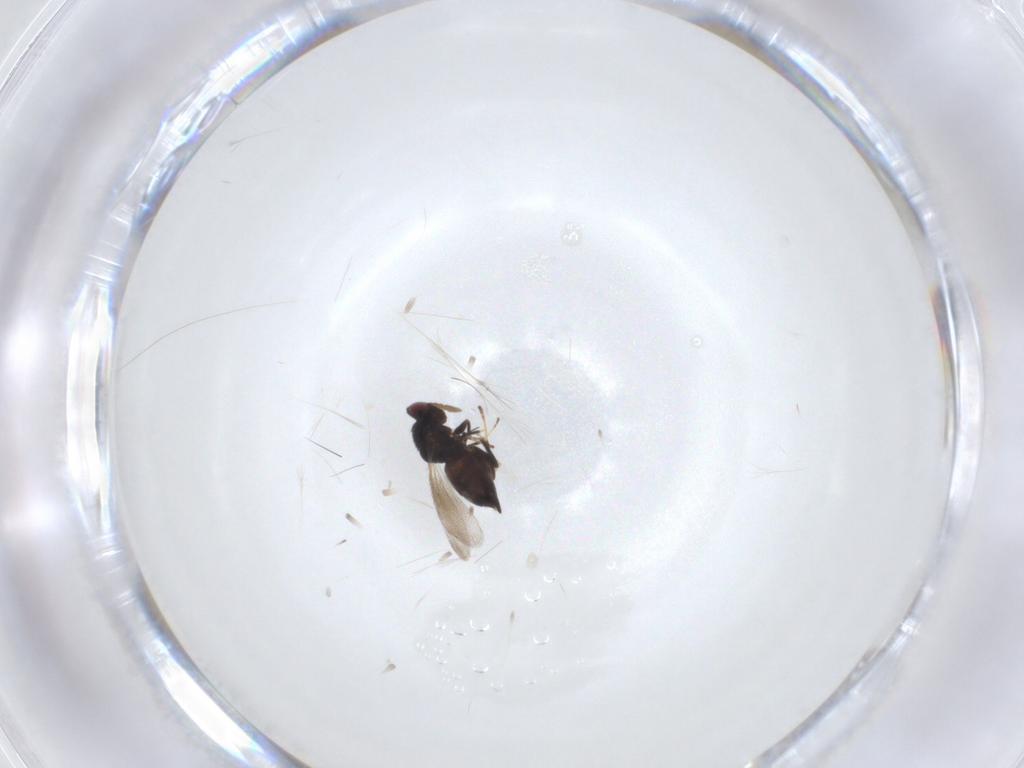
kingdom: Animalia
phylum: Arthropoda
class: Insecta
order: Hymenoptera
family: Eulophidae
